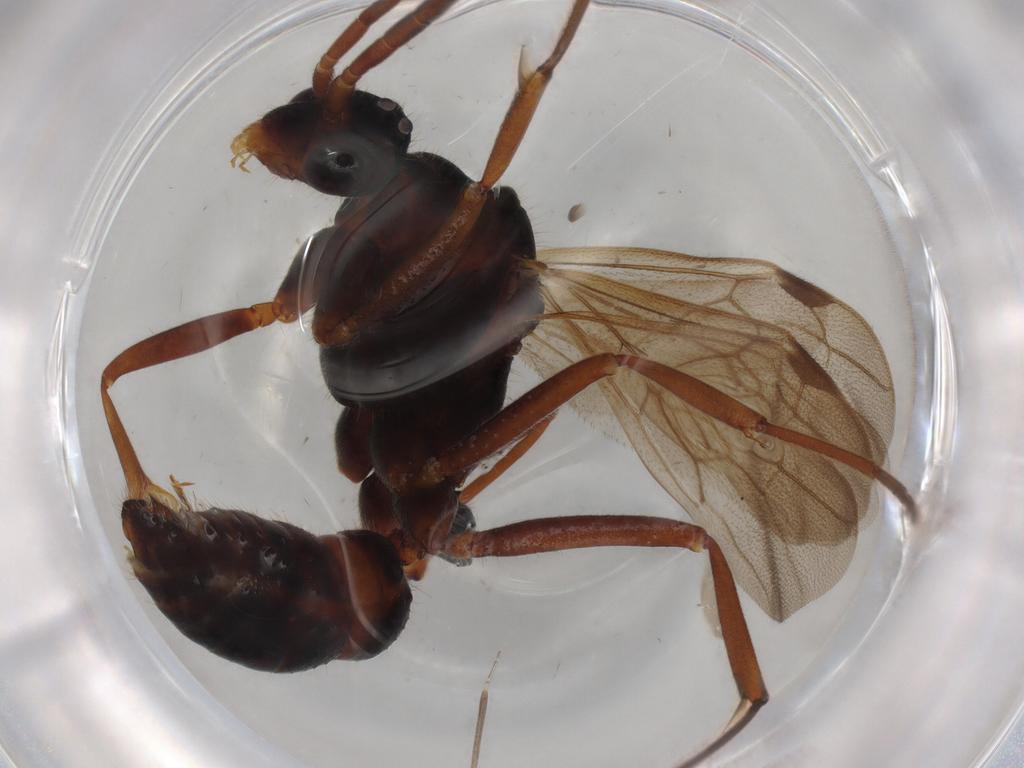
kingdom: Animalia
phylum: Arthropoda
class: Insecta
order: Hymenoptera
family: Formicidae
